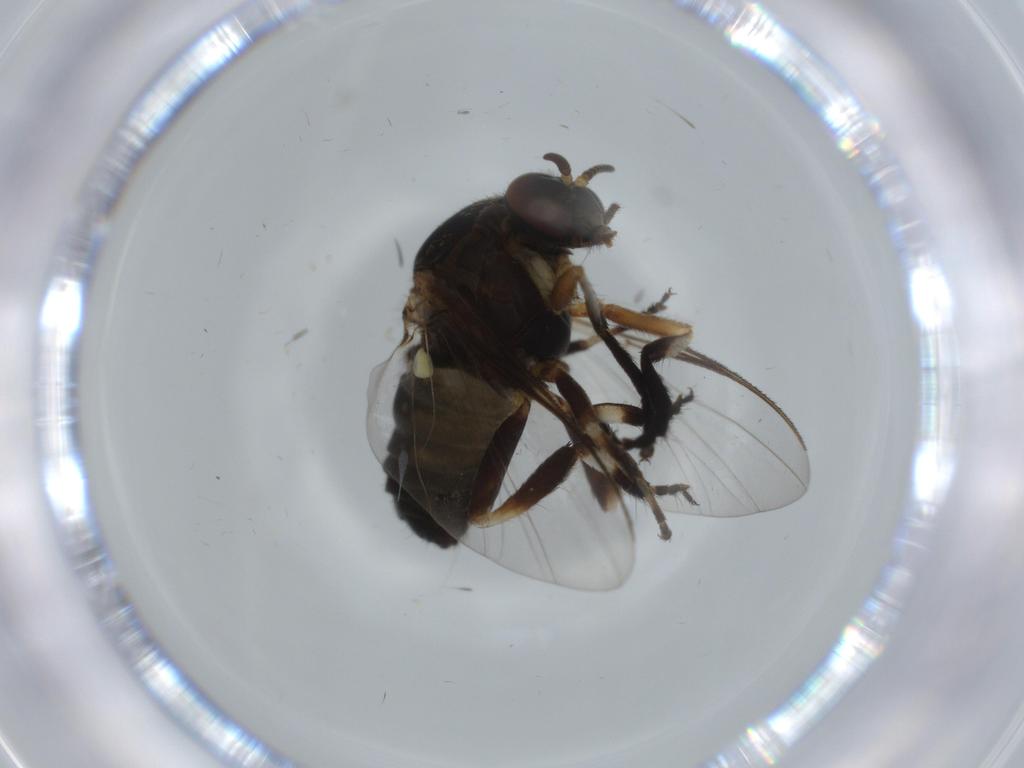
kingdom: Animalia
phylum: Arthropoda
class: Insecta
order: Diptera
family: Milichiidae
